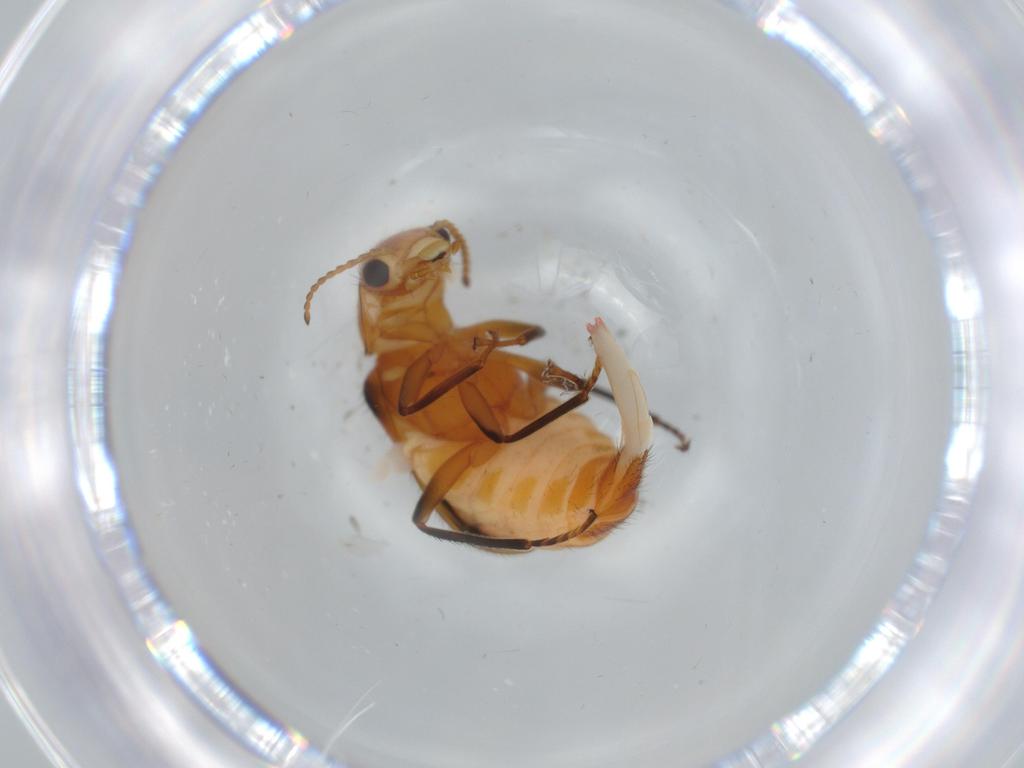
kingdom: Animalia
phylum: Arthropoda
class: Insecta
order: Coleoptera
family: Melyridae
